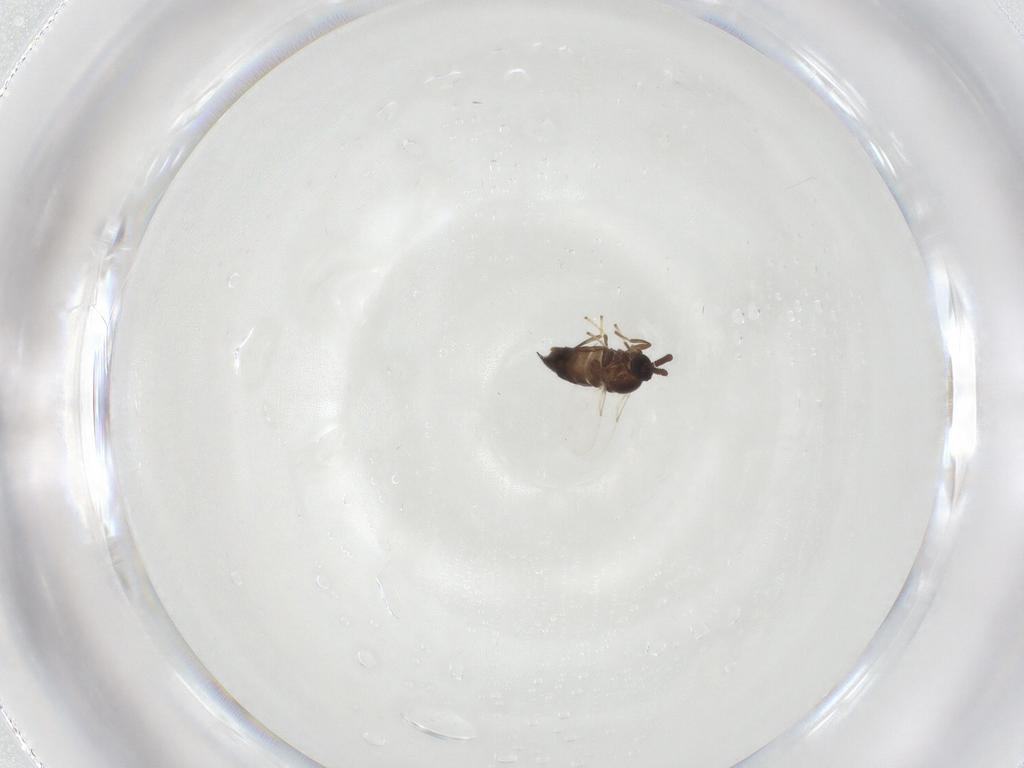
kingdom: Animalia
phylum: Arthropoda
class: Insecta
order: Diptera
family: Scatopsidae
